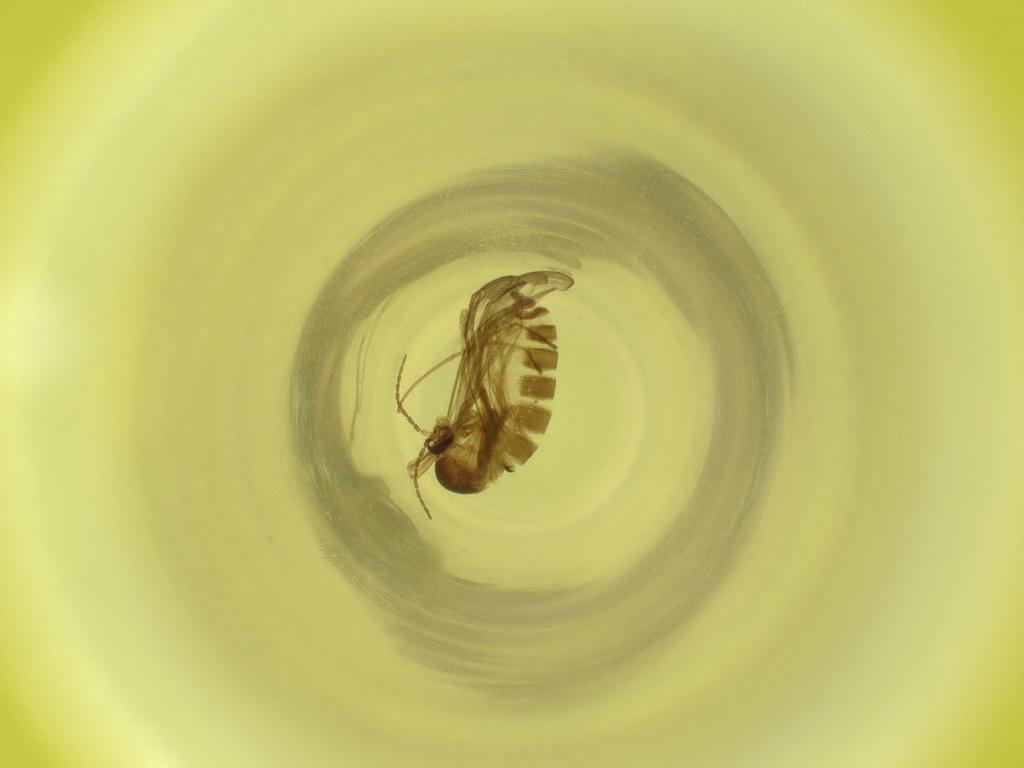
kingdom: Animalia
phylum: Arthropoda
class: Insecta
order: Diptera
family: Cecidomyiidae
